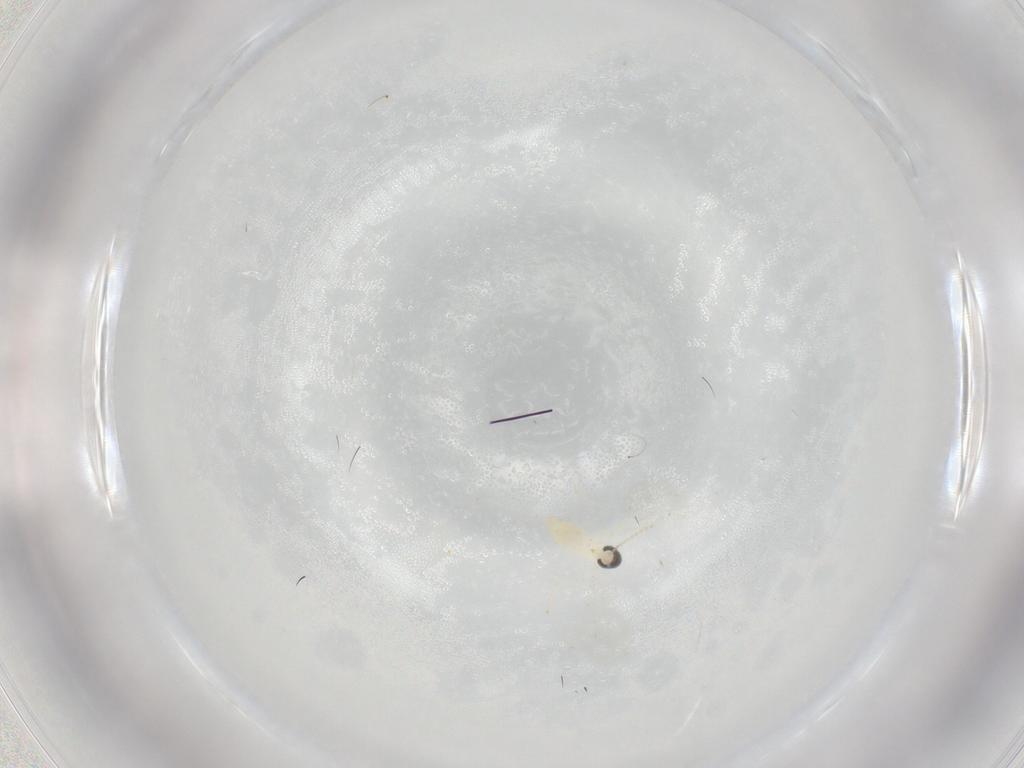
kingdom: Animalia
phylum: Arthropoda
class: Insecta
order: Diptera
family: Cecidomyiidae
